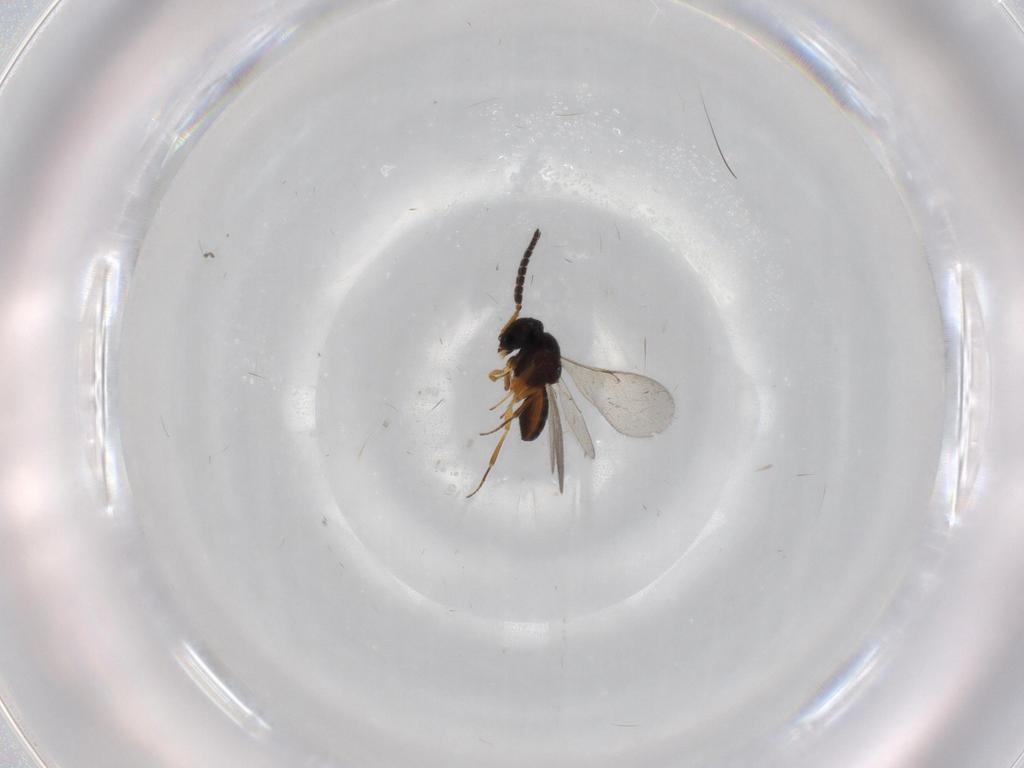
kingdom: Animalia
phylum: Arthropoda
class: Insecta
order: Coleoptera
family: Curculionidae
